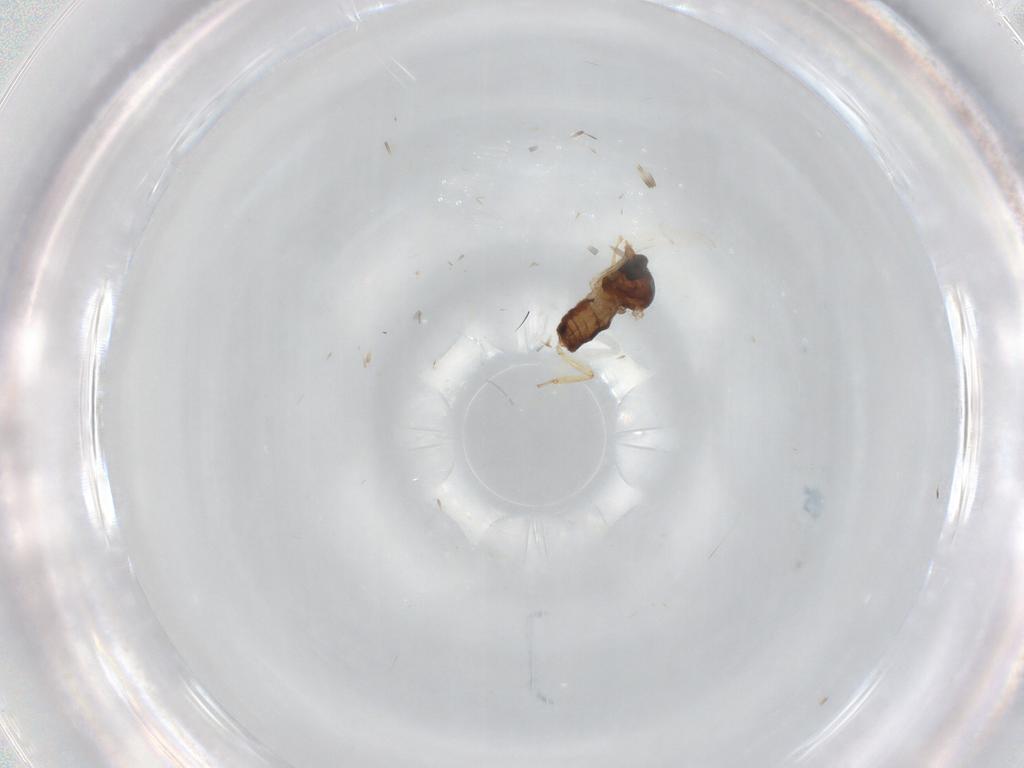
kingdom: Animalia
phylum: Arthropoda
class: Insecta
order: Diptera
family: Ceratopogonidae
